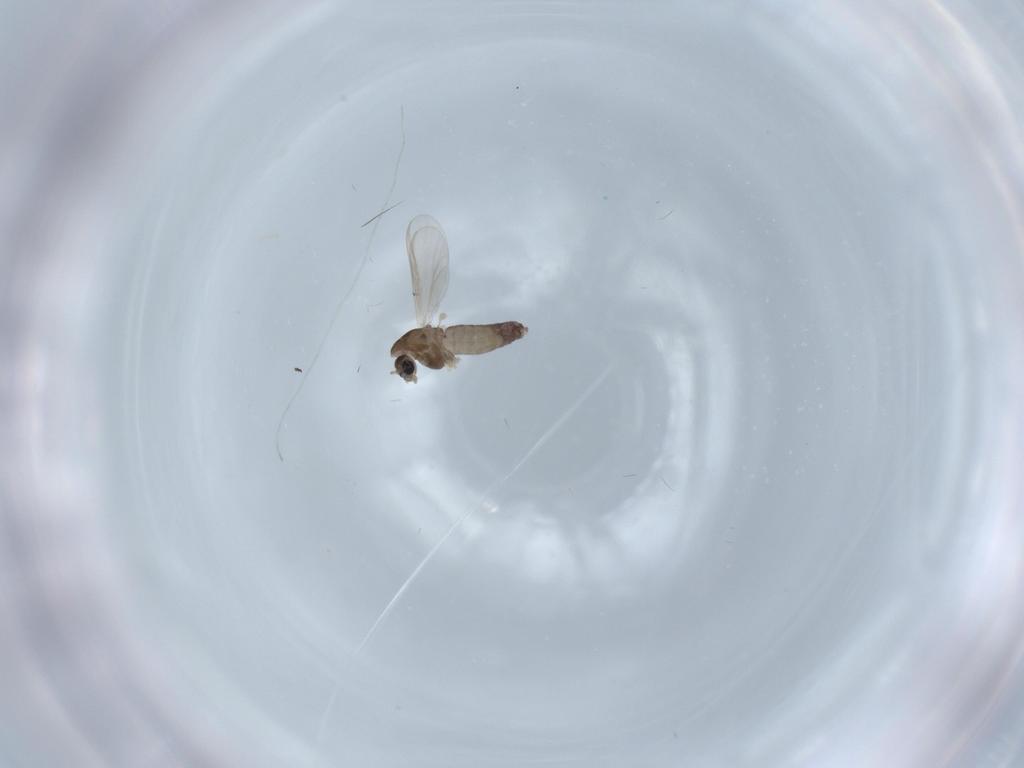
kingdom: Animalia
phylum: Arthropoda
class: Insecta
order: Diptera
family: Chironomidae
